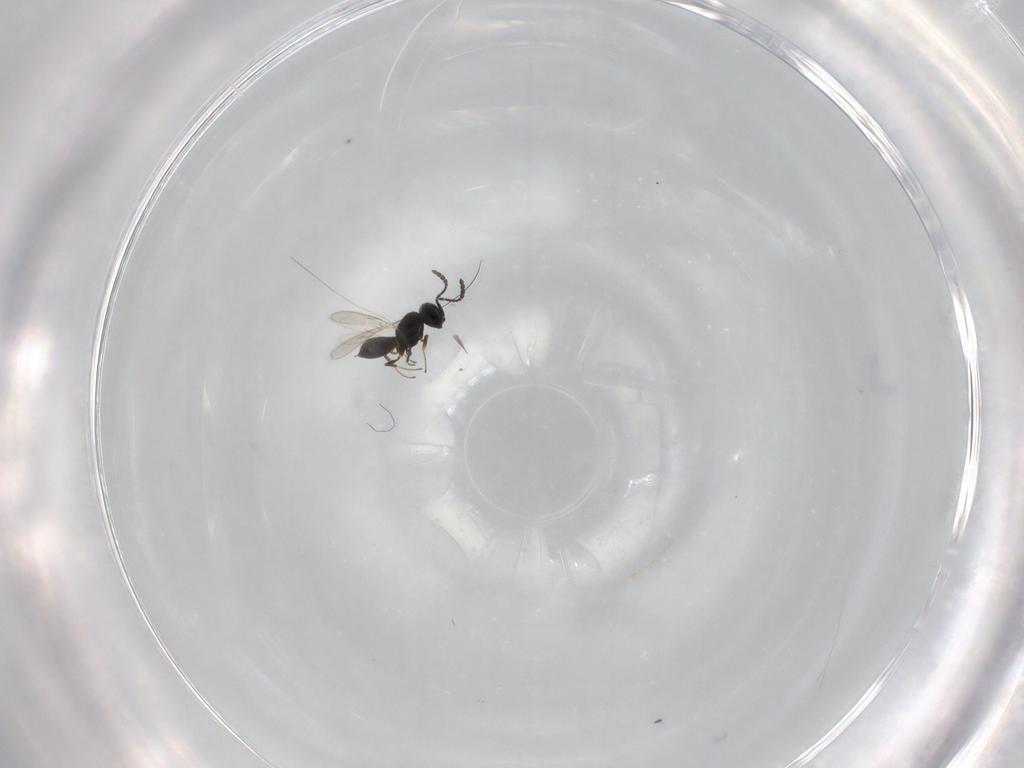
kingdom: Animalia
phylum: Arthropoda
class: Insecta
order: Hymenoptera
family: Scelionidae
